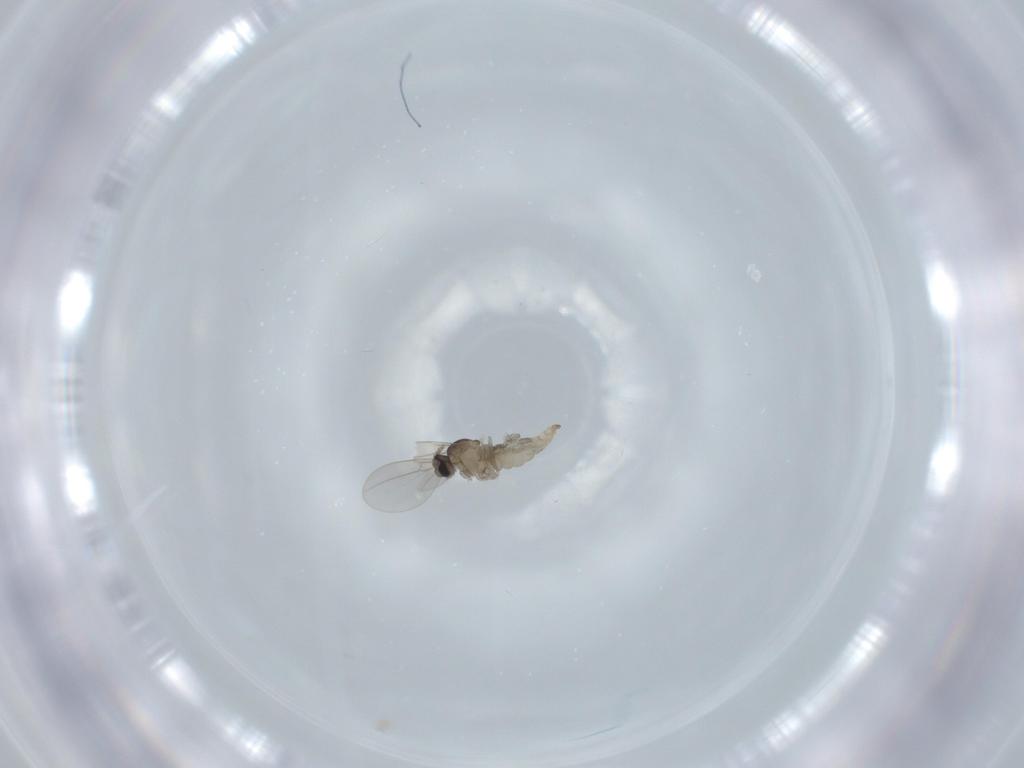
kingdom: Animalia
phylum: Arthropoda
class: Insecta
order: Diptera
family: Cecidomyiidae
